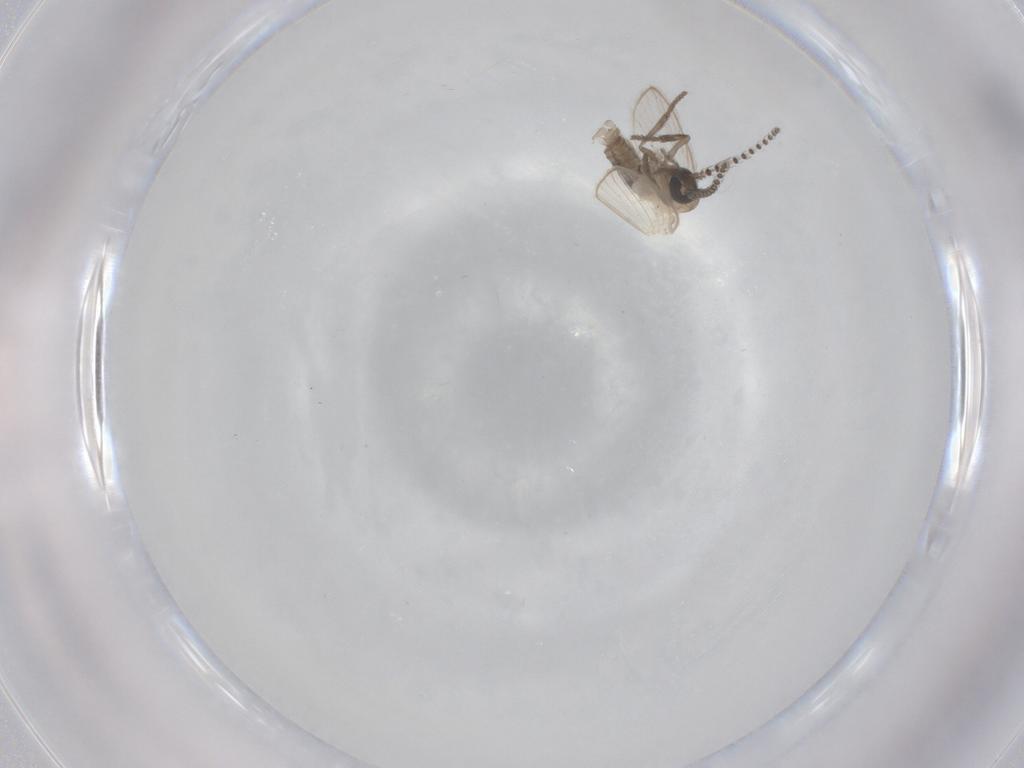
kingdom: Animalia
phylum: Arthropoda
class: Insecta
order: Diptera
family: Psychodidae
